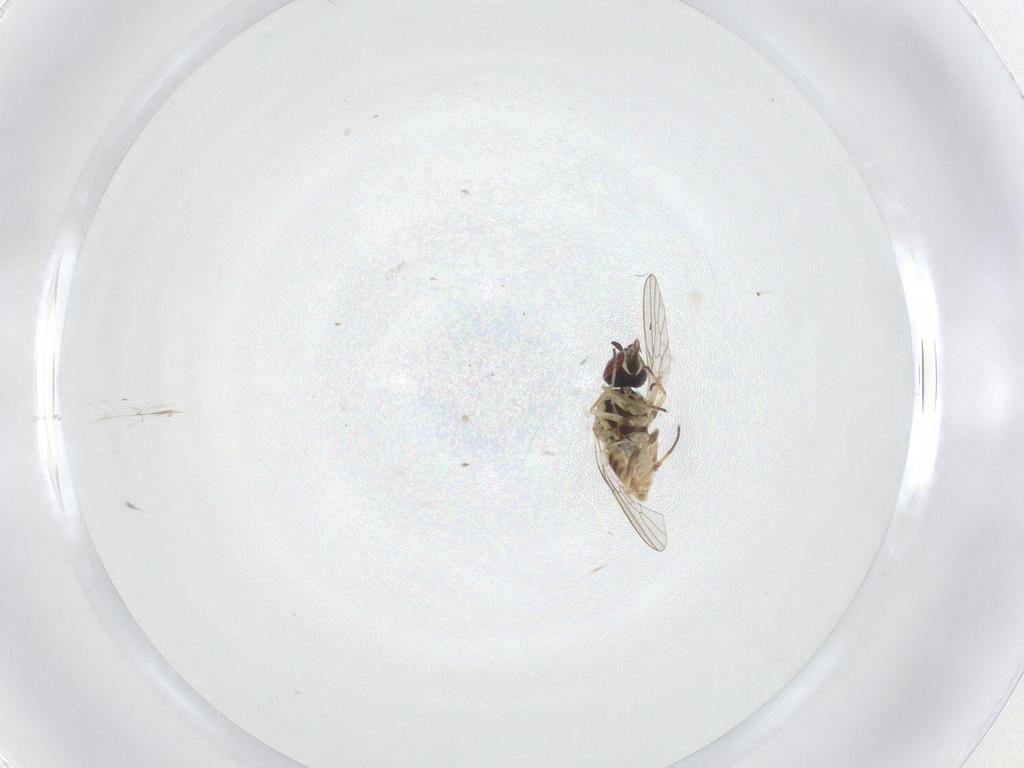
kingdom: Animalia
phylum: Arthropoda
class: Insecta
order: Diptera
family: Bombyliidae
